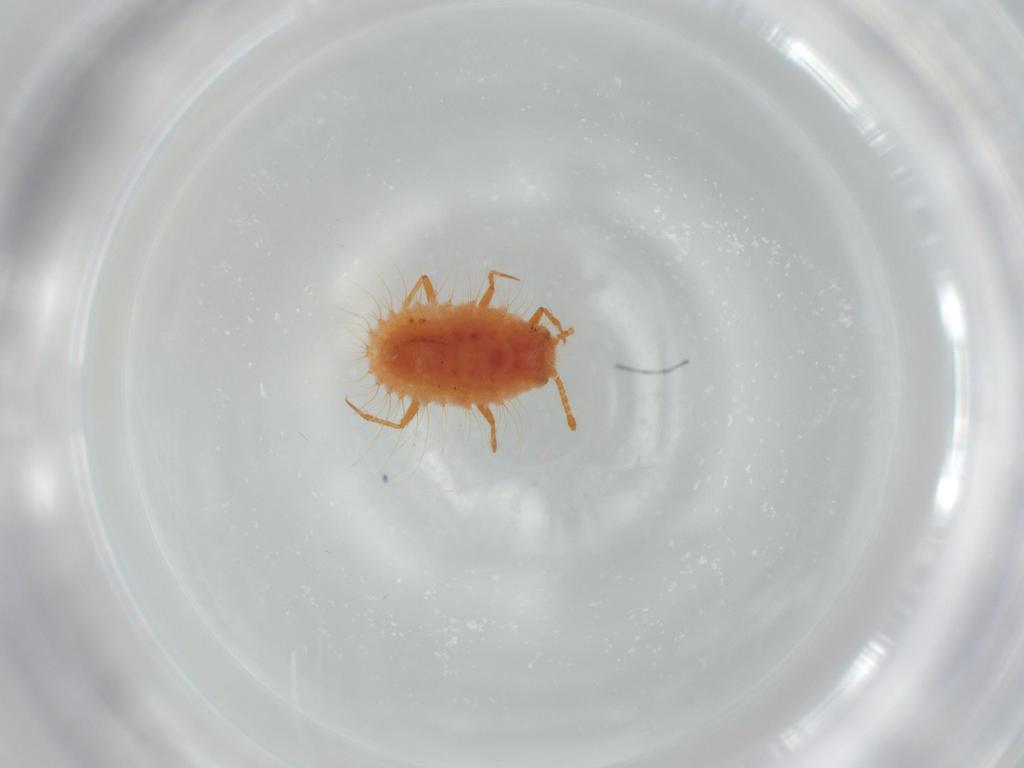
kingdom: Animalia
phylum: Arthropoda
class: Insecta
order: Hemiptera
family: Coccoidea_incertae_sedis
